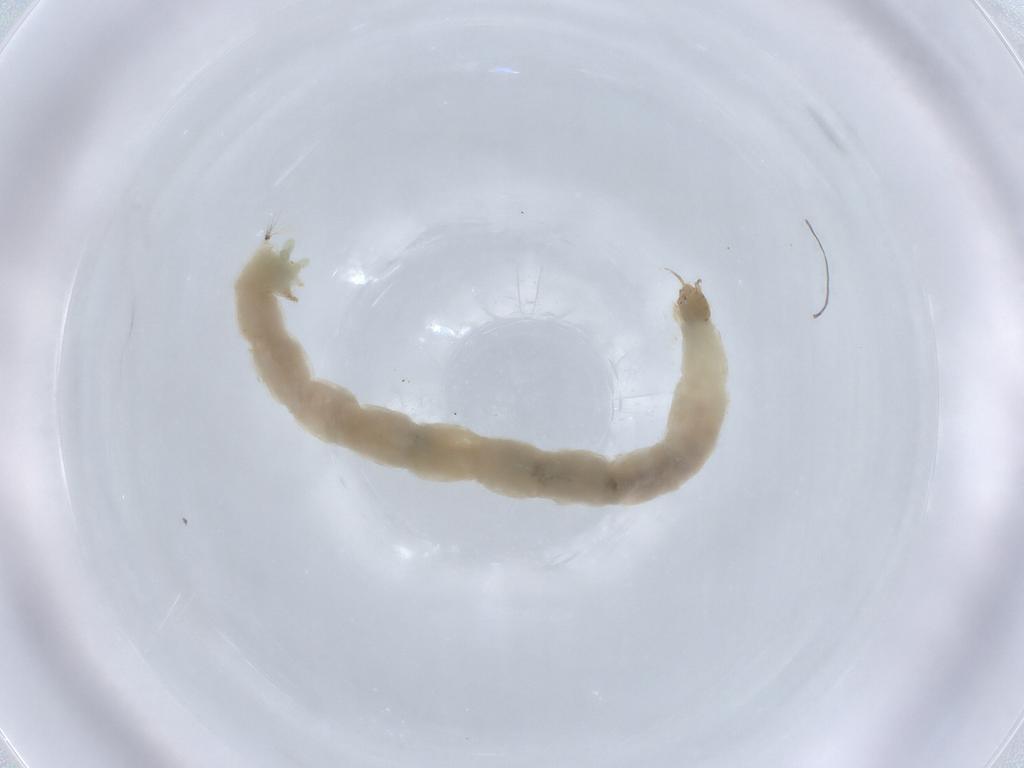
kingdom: Animalia
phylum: Arthropoda
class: Insecta
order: Diptera
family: Chironomidae
